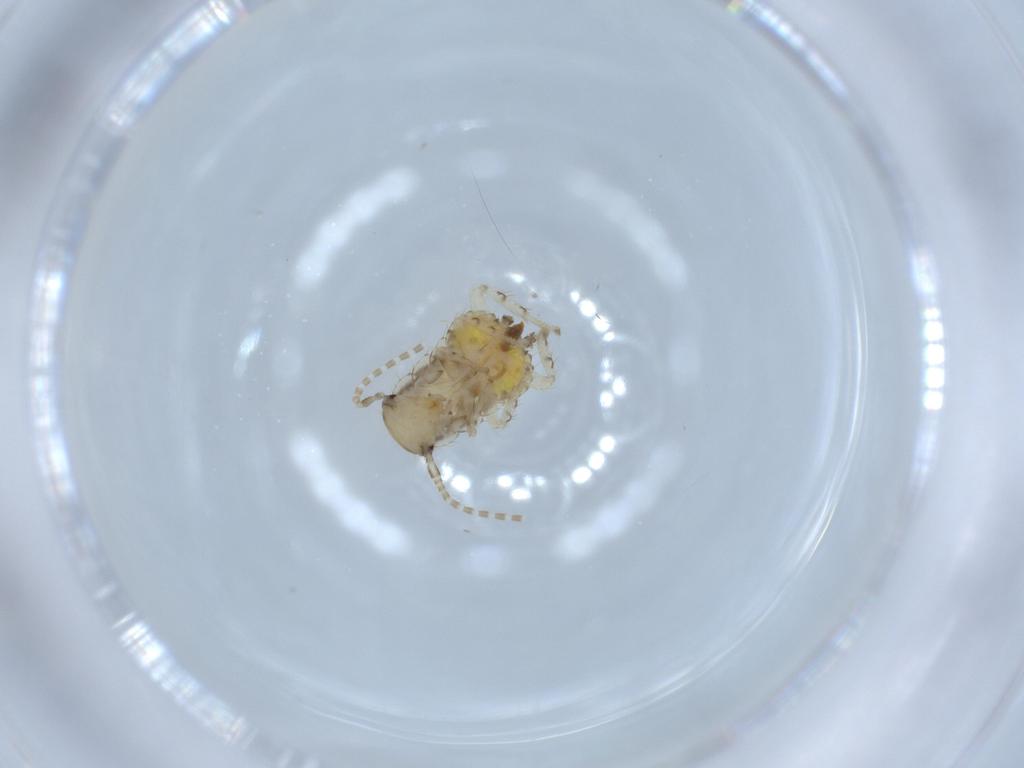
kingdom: Animalia
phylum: Arthropoda
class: Insecta
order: Blattodea
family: Ectobiidae
